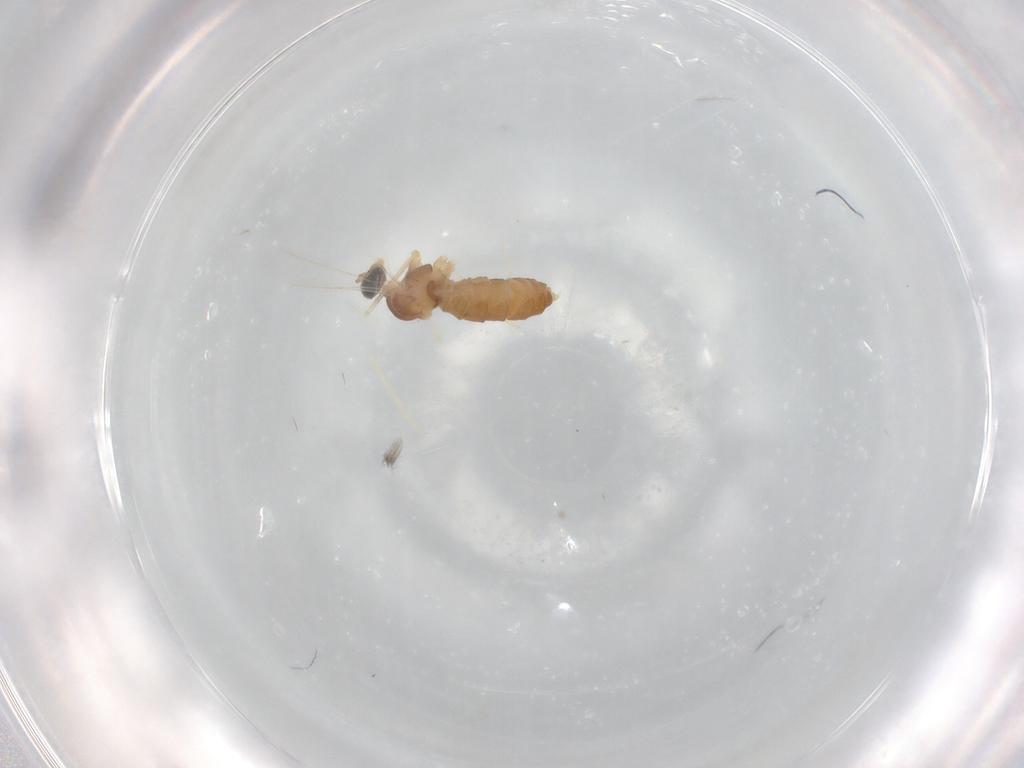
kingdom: Animalia
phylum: Arthropoda
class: Insecta
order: Diptera
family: Cecidomyiidae
